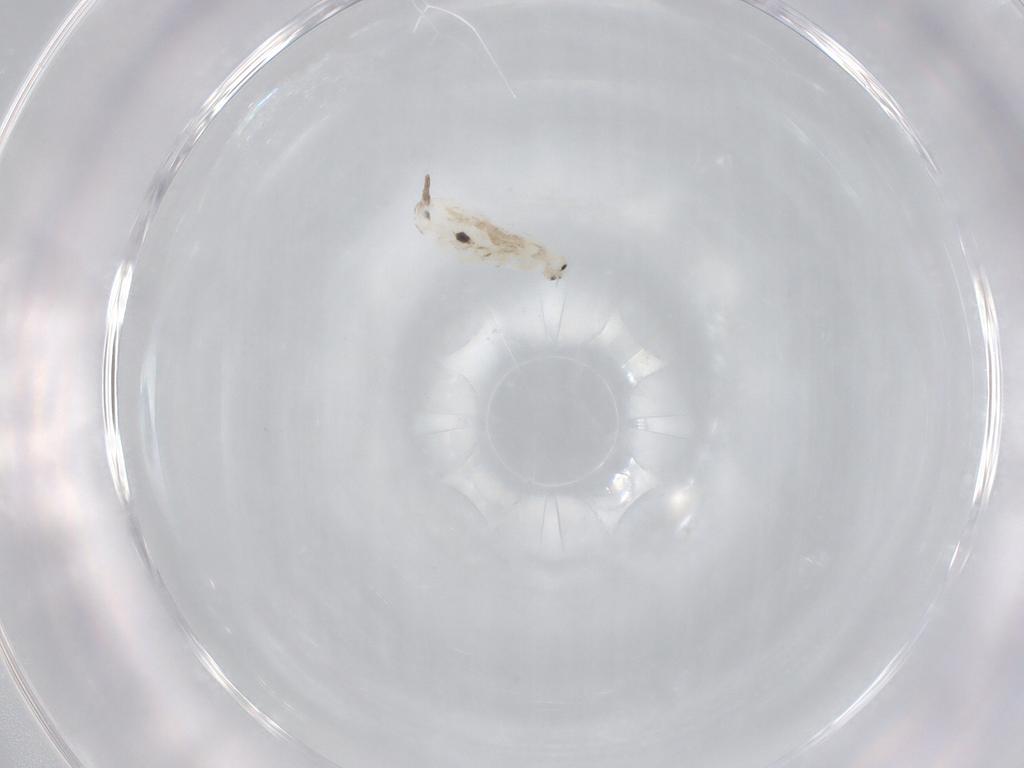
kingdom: Animalia
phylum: Arthropoda
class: Collembola
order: Entomobryomorpha
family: Entomobryidae
